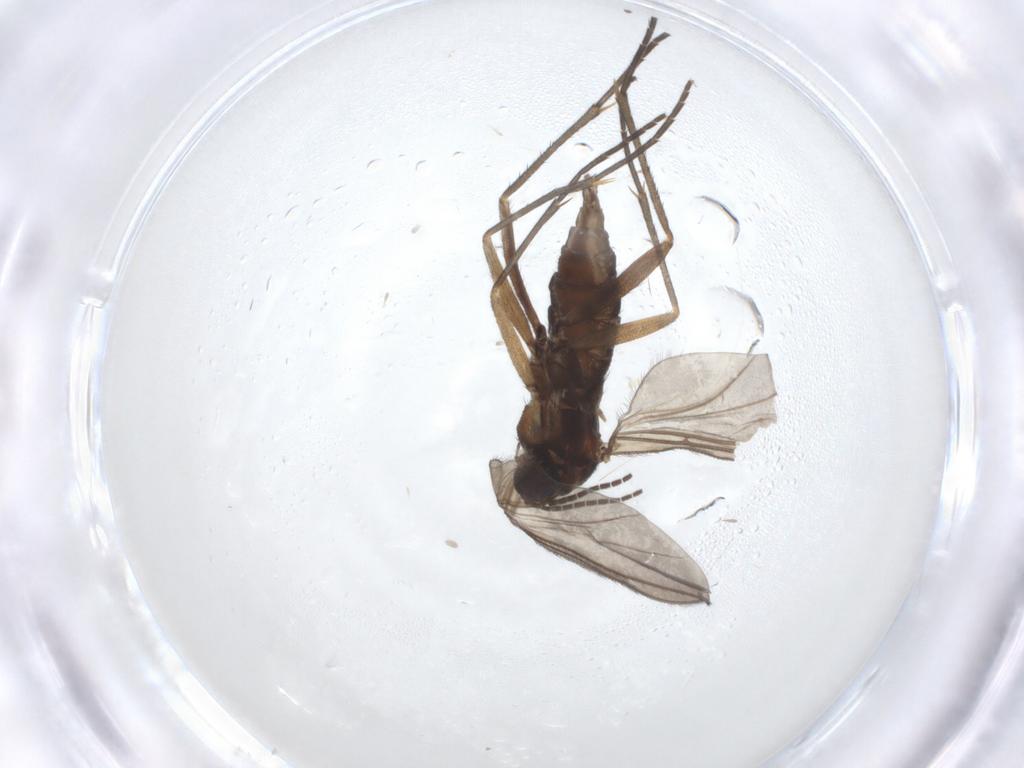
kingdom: Animalia
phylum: Arthropoda
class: Insecta
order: Diptera
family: Sciaridae
